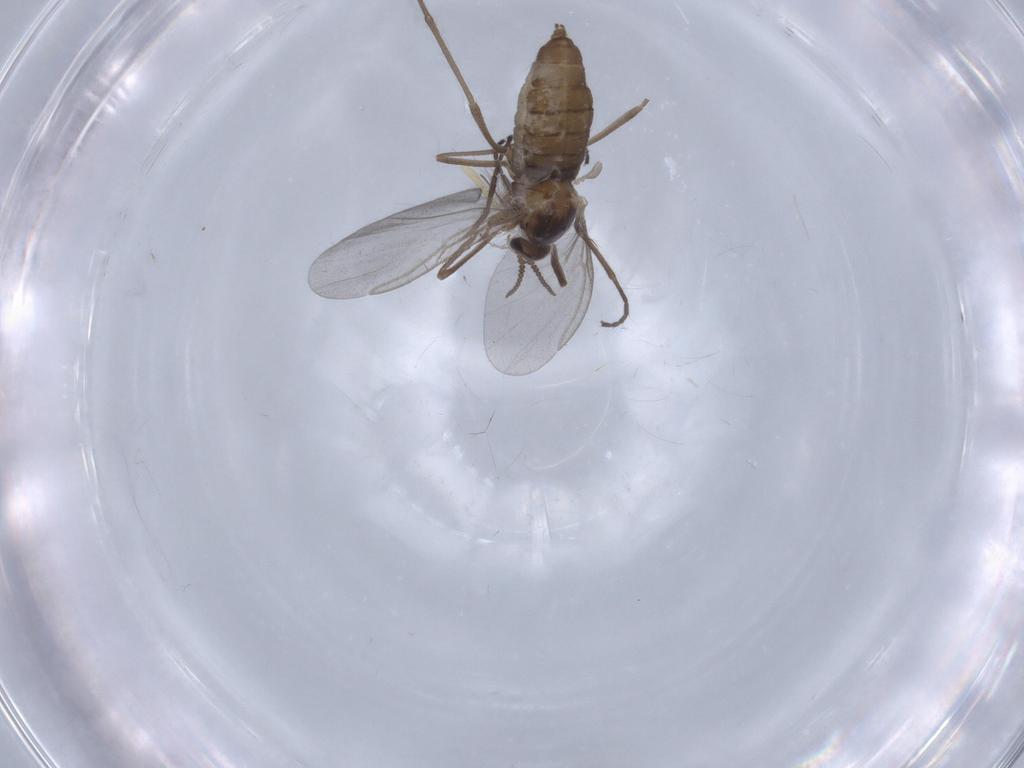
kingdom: Animalia
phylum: Arthropoda
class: Insecta
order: Diptera
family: Cecidomyiidae
